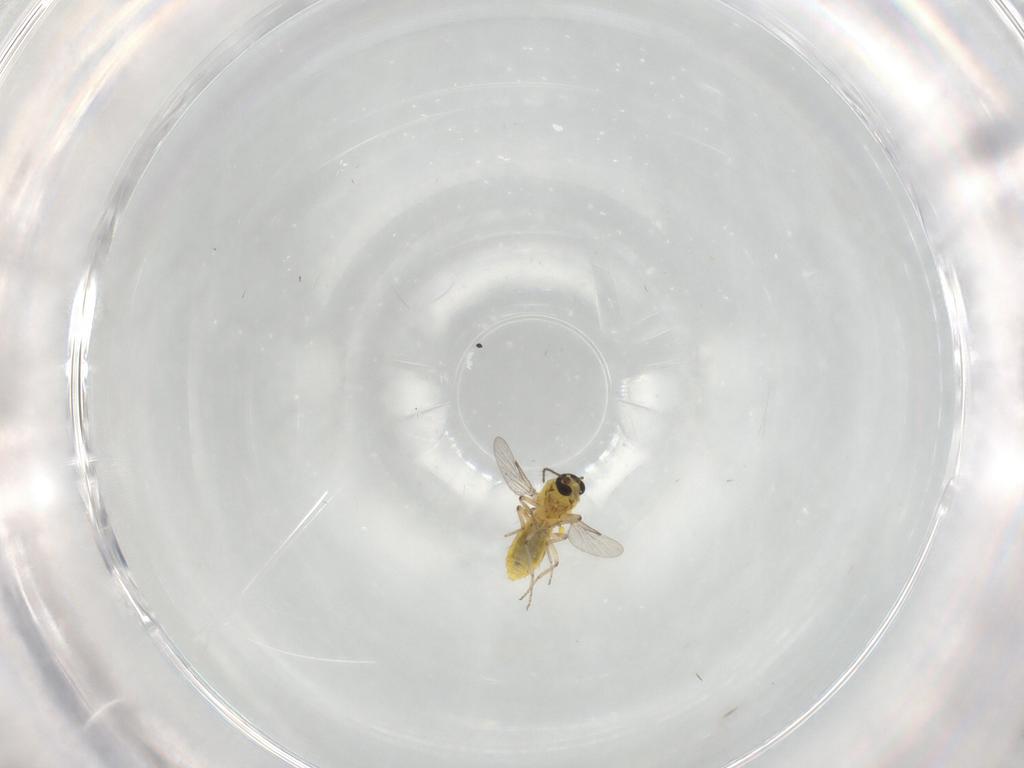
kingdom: Animalia
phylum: Arthropoda
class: Insecta
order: Diptera
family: Ceratopogonidae
